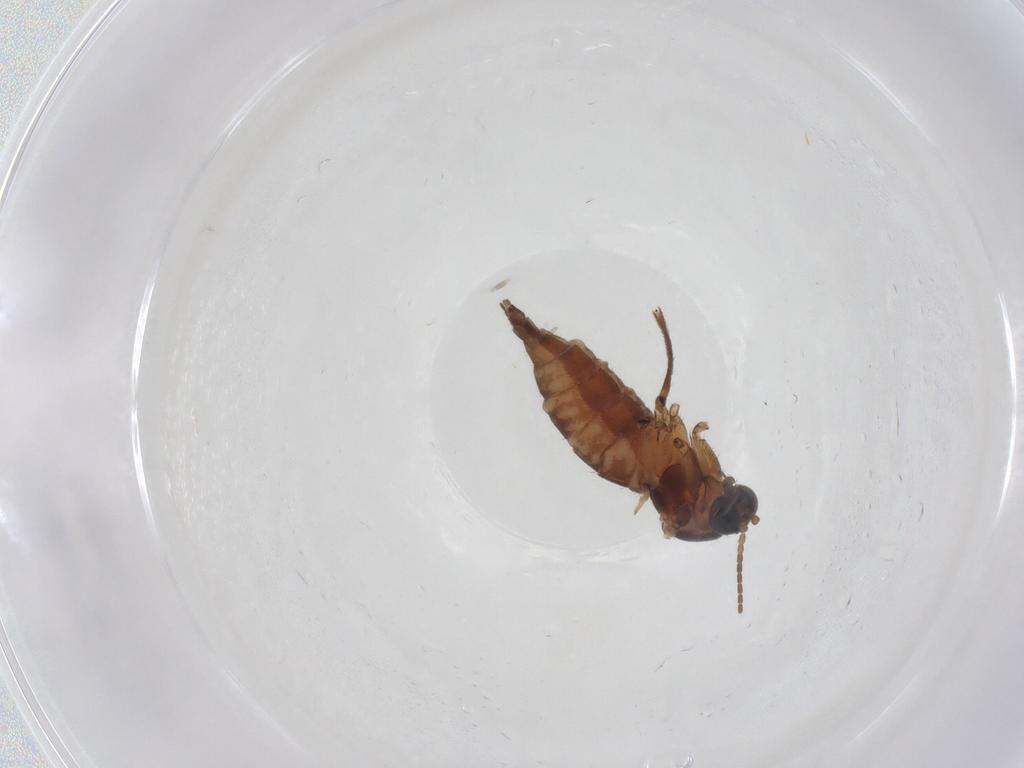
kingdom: Animalia
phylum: Arthropoda
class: Insecta
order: Diptera
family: Sciaridae
